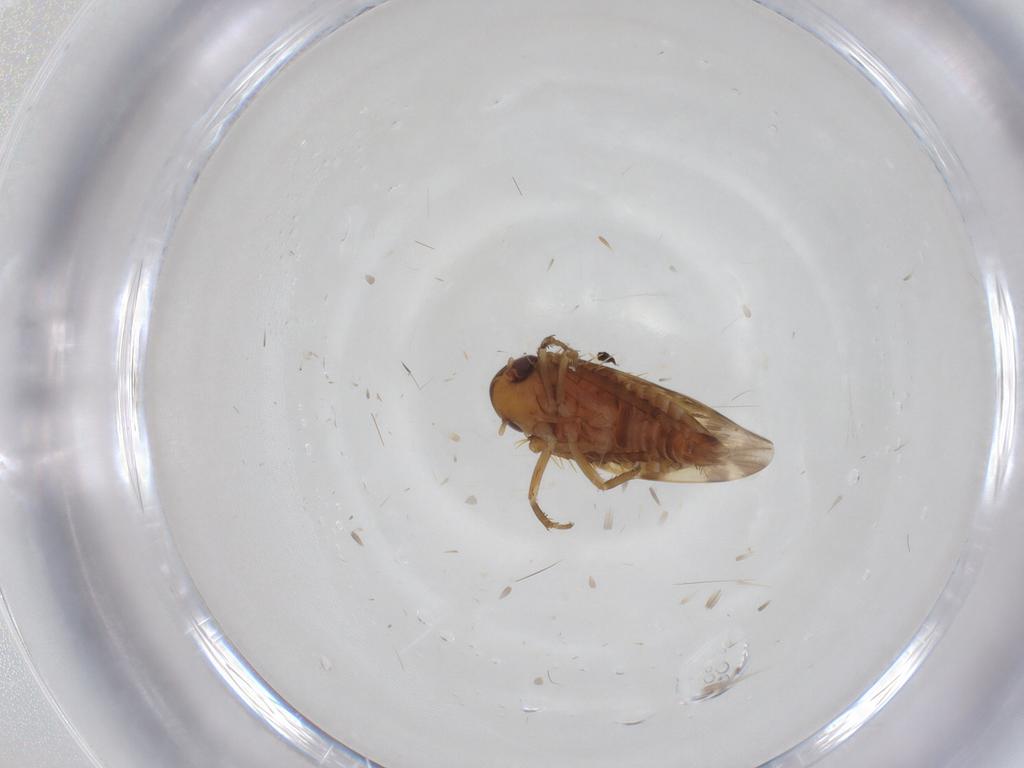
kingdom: Animalia
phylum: Arthropoda
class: Insecta
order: Hemiptera
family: Cicadellidae
